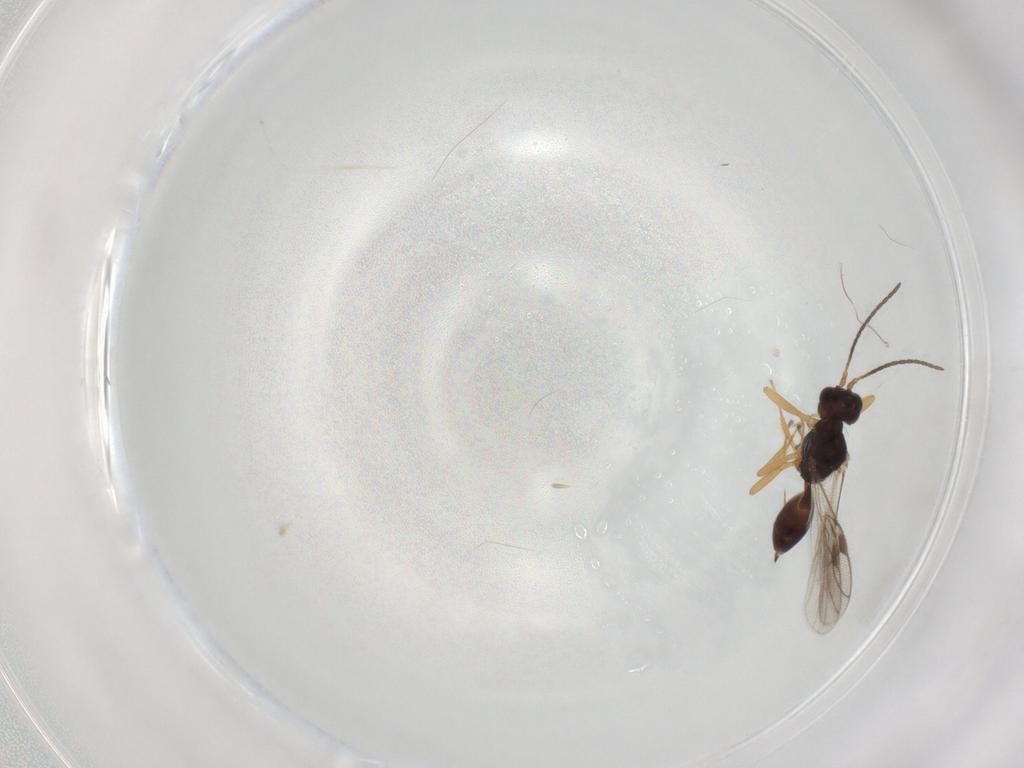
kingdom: Animalia
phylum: Arthropoda
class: Insecta
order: Hymenoptera
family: Braconidae
